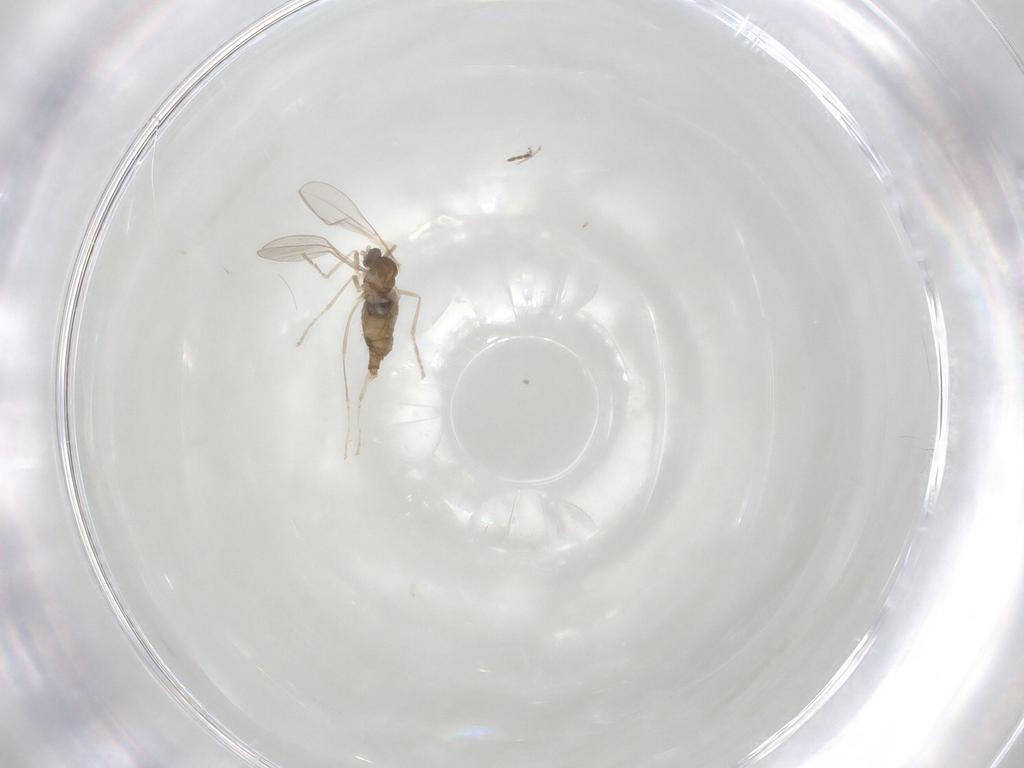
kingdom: Animalia
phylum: Arthropoda
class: Insecta
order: Diptera
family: Cecidomyiidae
